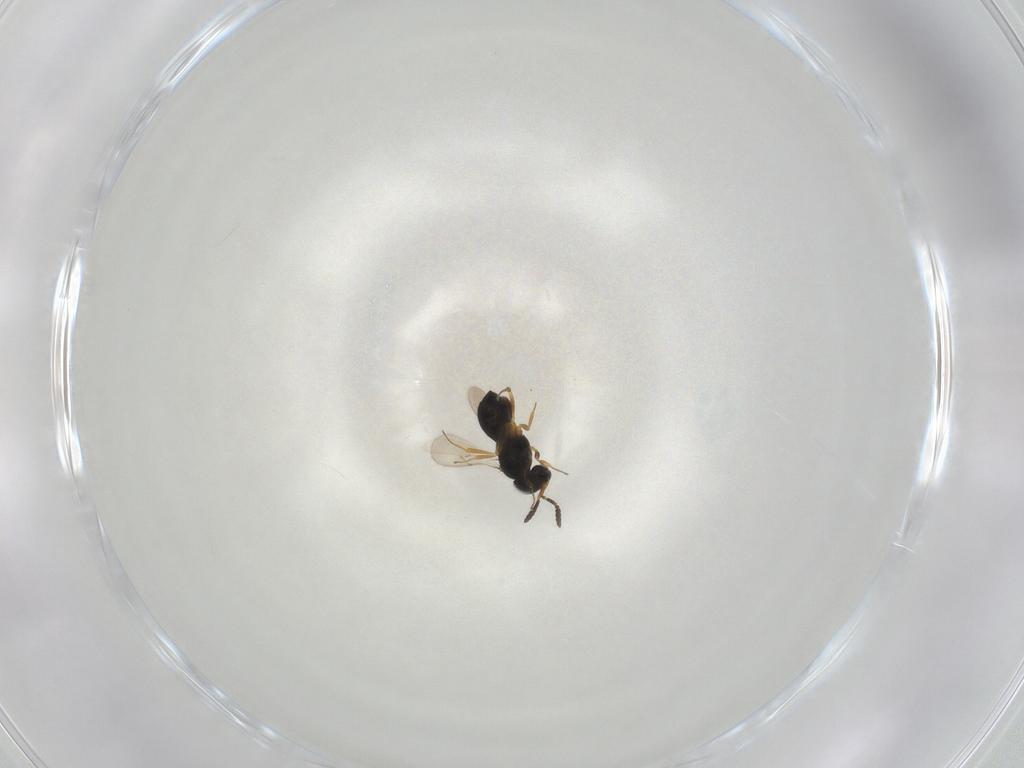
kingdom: Animalia
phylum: Arthropoda
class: Insecta
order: Hymenoptera
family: Scelionidae
